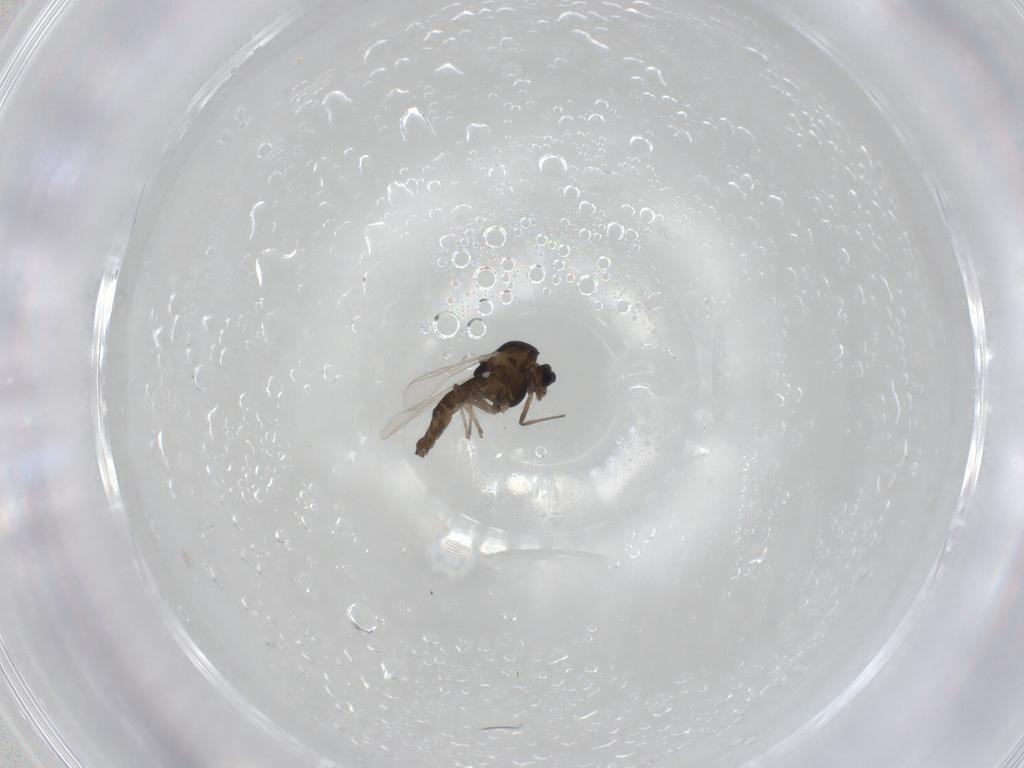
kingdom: Animalia
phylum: Arthropoda
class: Insecta
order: Diptera
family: Chironomidae
